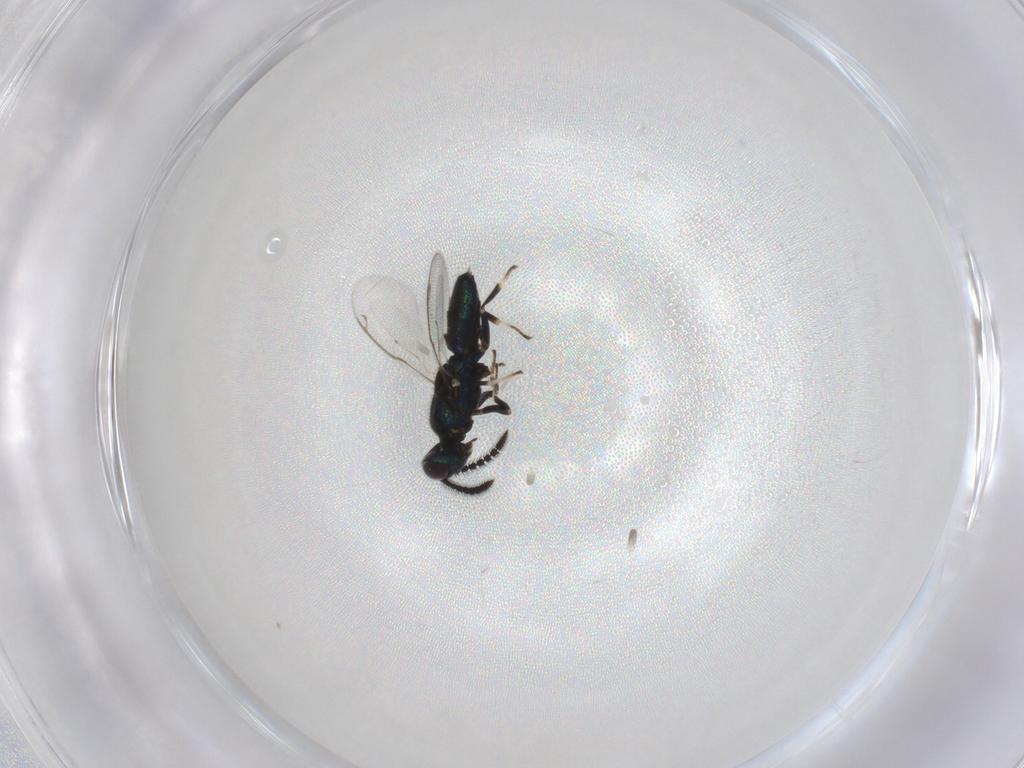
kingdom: Animalia
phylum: Arthropoda
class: Insecta
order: Hymenoptera
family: Eupelmidae
